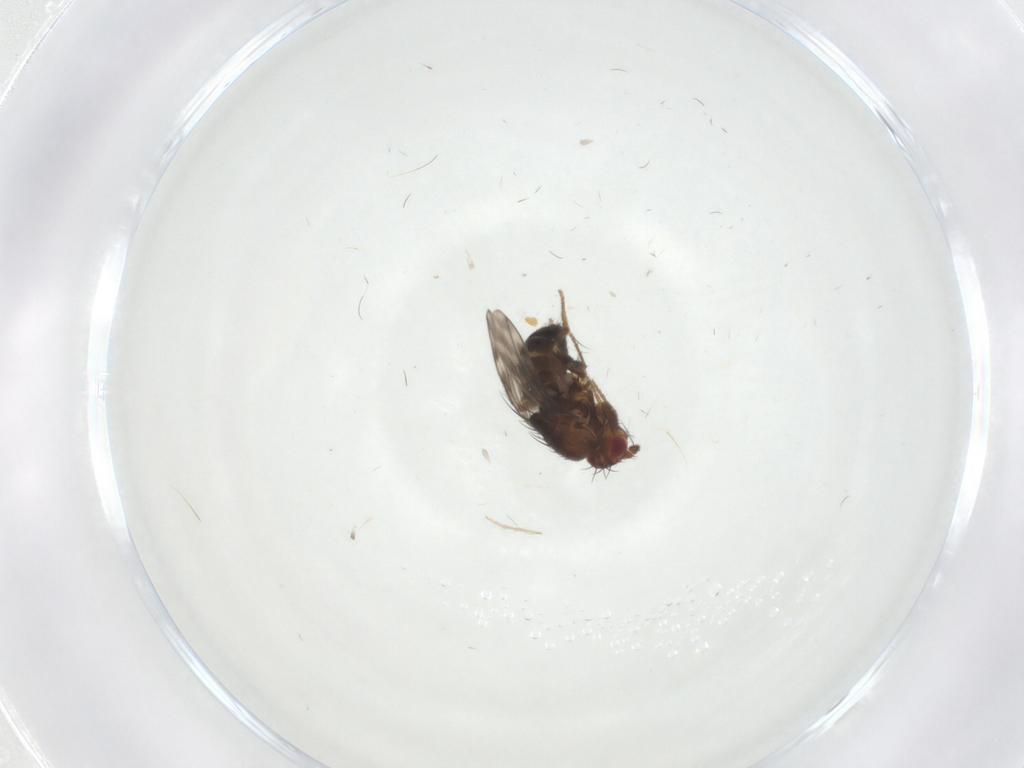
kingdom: Animalia
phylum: Arthropoda
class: Insecta
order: Diptera
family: Sphaeroceridae
